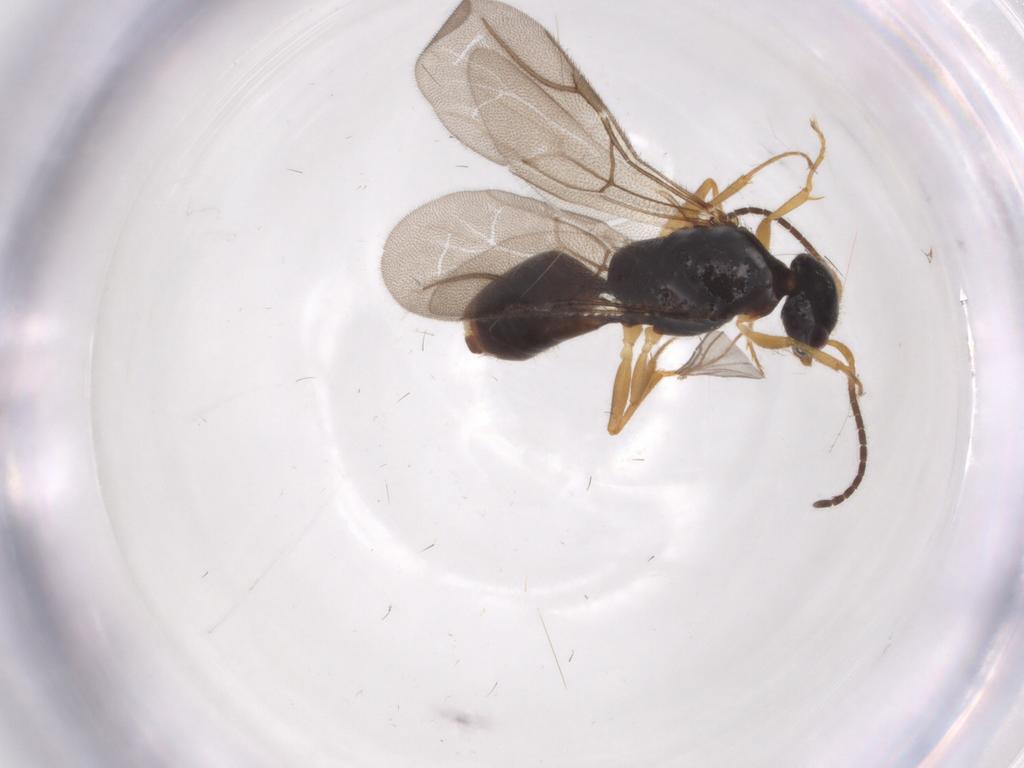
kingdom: Animalia
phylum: Arthropoda
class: Insecta
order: Hymenoptera
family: Bethylidae
